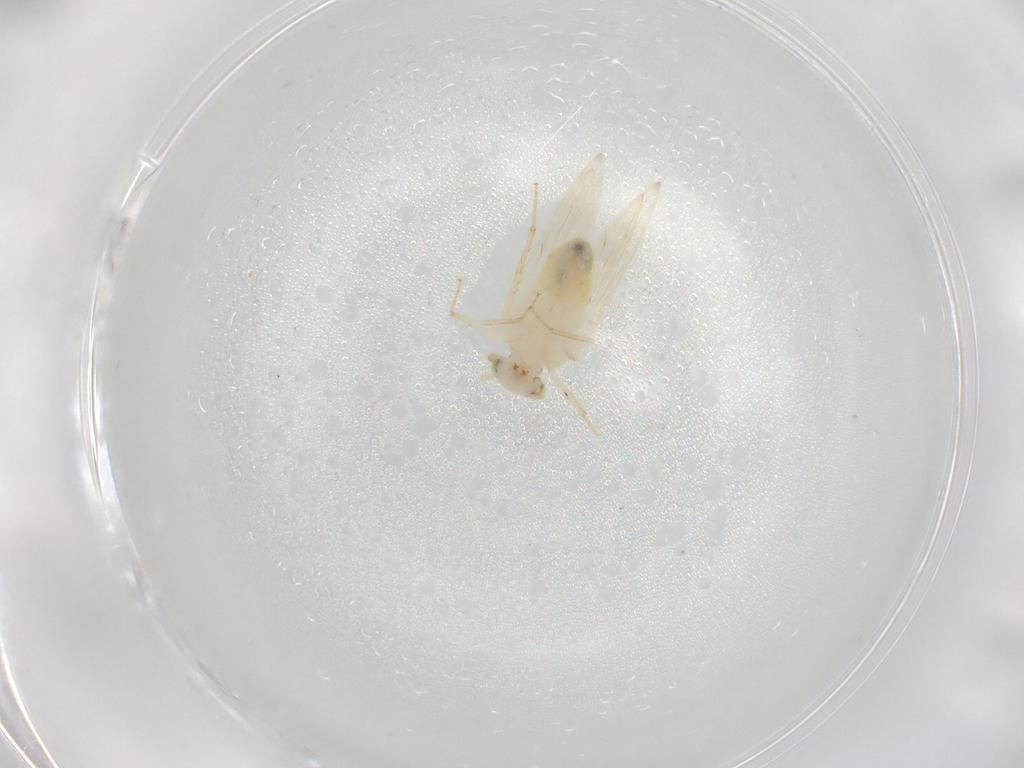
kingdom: Animalia
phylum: Arthropoda
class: Insecta
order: Psocodea
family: Lepidopsocidae
